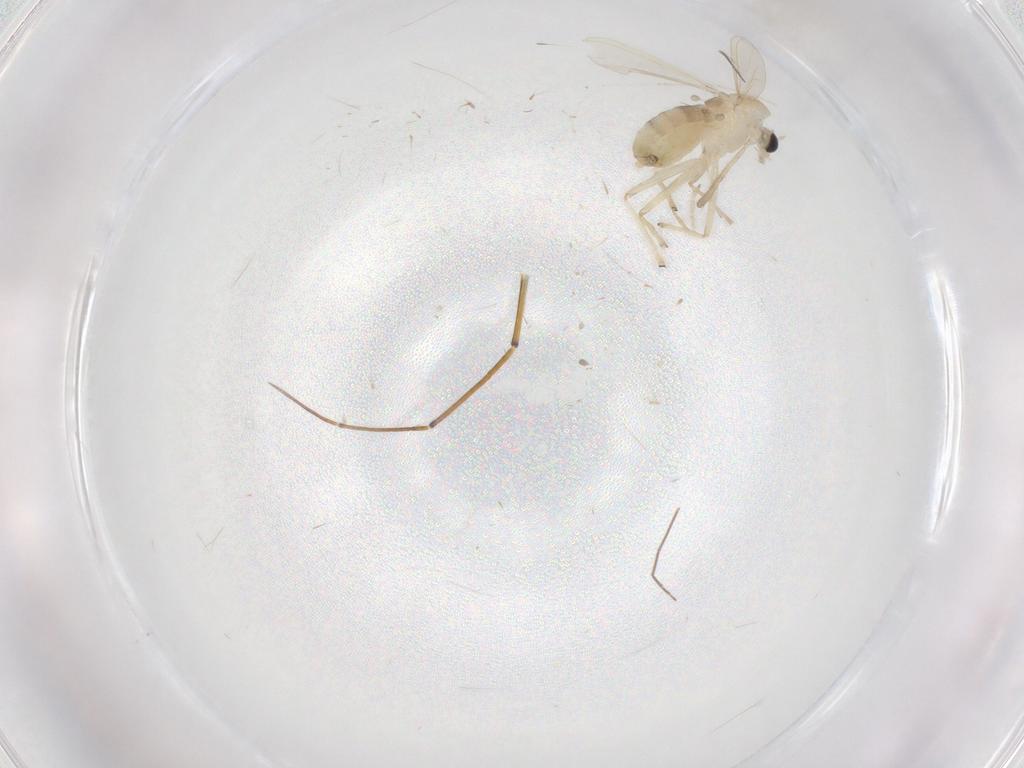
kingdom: Animalia
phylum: Arthropoda
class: Insecta
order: Diptera
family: Chironomidae
